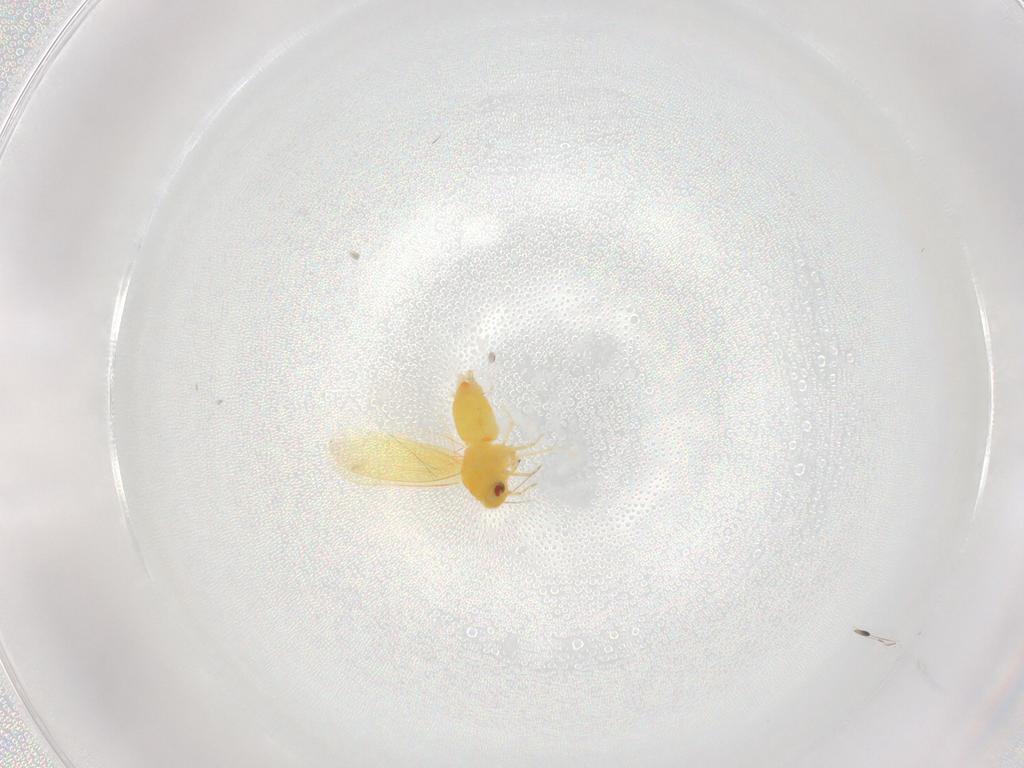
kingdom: Animalia
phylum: Arthropoda
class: Insecta
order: Hemiptera
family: Aleyrodidae
